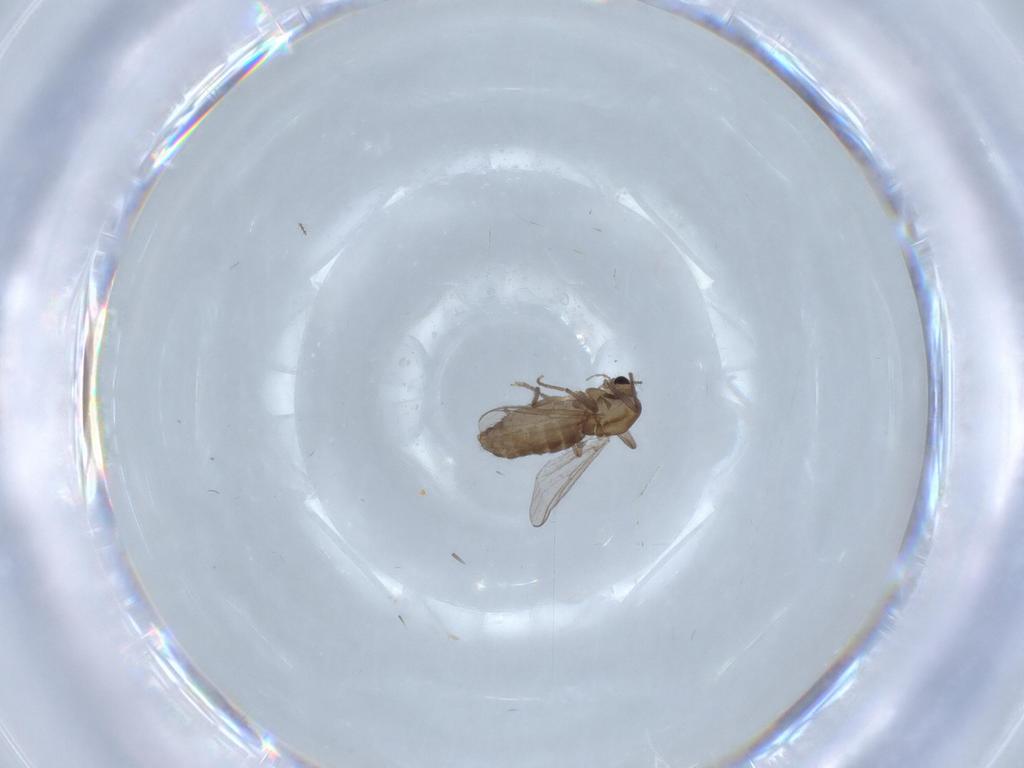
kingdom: Animalia
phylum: Arthropoda
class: Insecta
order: Diptera
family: Chironomidae
